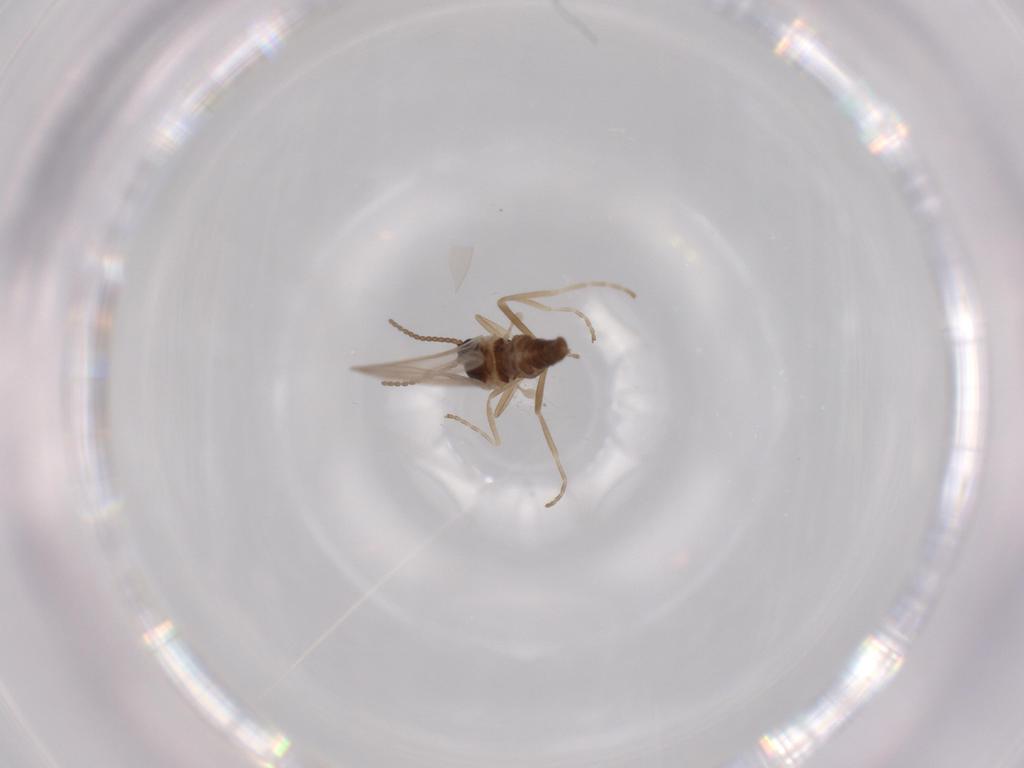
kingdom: Animalia
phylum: Arthropoda
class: Insecta
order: Diptera
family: Cecidomyiidae
